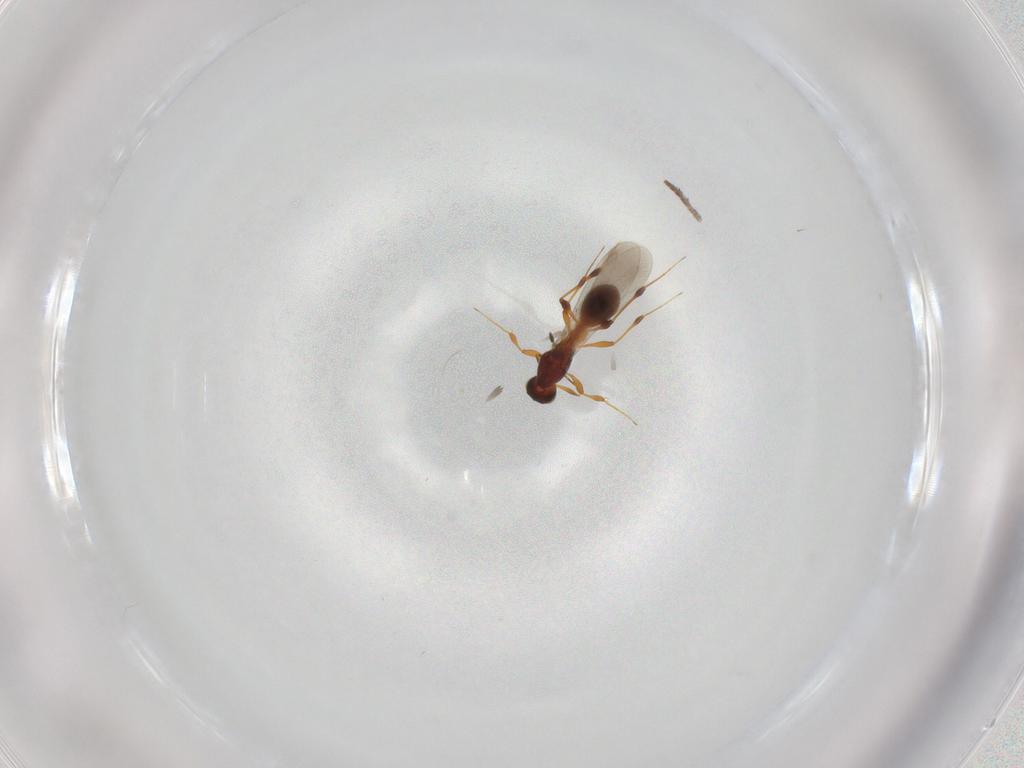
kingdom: Animalia
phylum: Arthropoda
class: Insecta
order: Hymenoptera
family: Platygastridae
